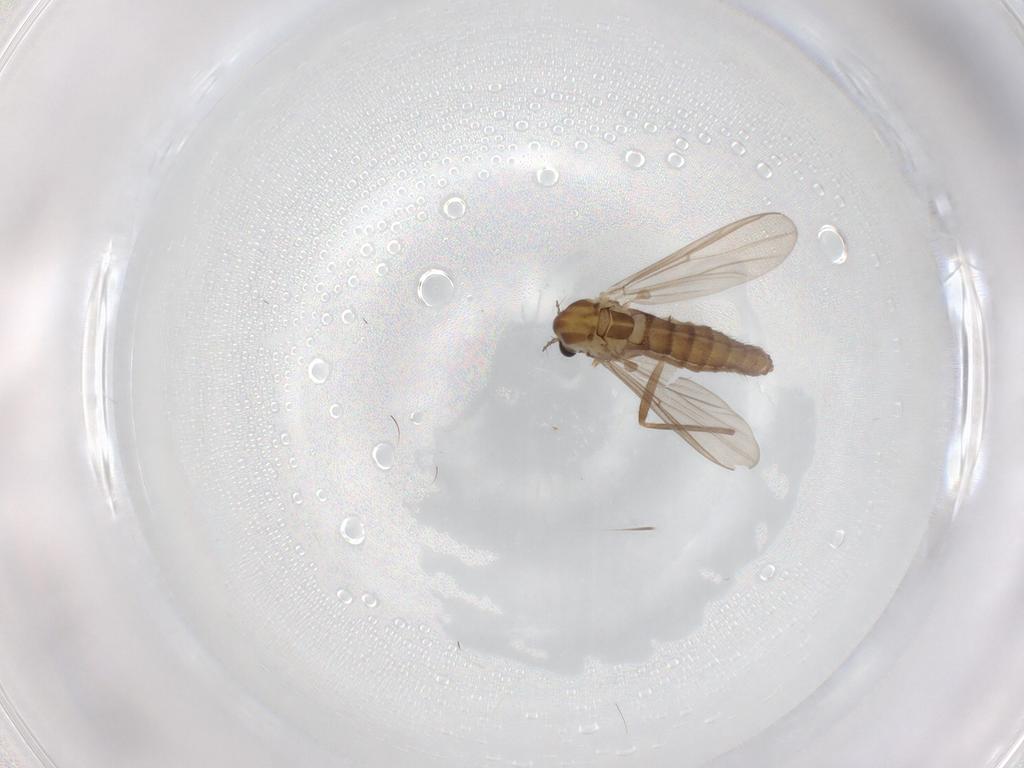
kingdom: Animalia
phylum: Arthropoda
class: Insecta
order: Diptera
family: Chironomidae
